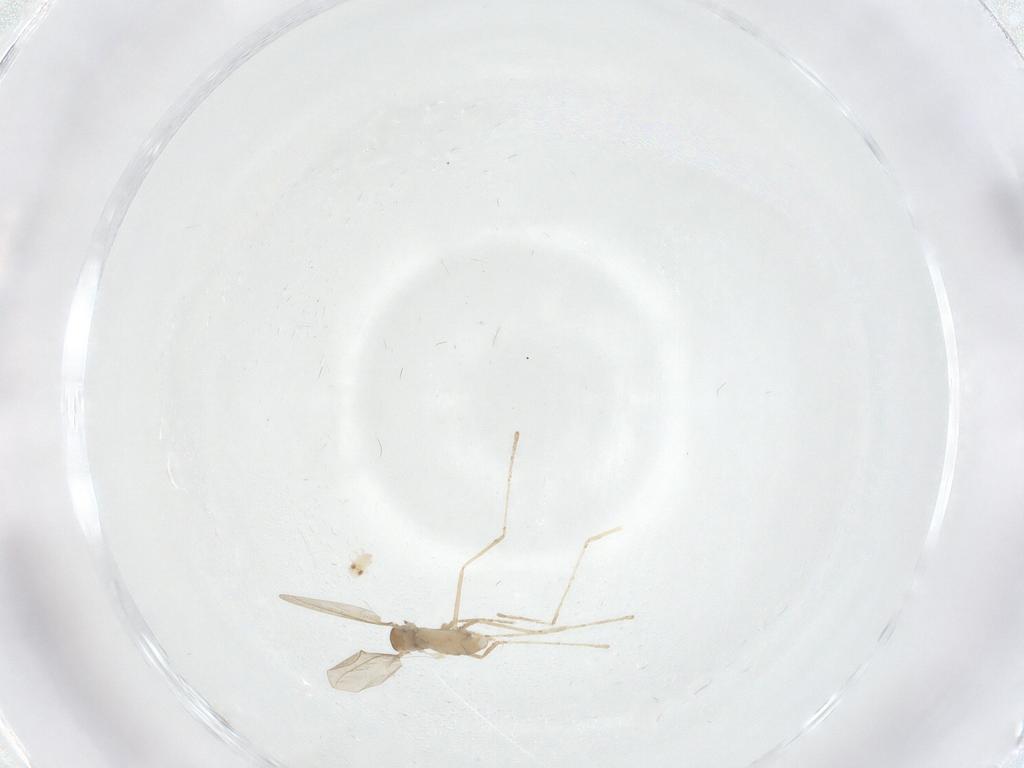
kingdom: Animalia
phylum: Arthropoda
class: Insecta
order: Diptera
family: Cecidomyiidae
